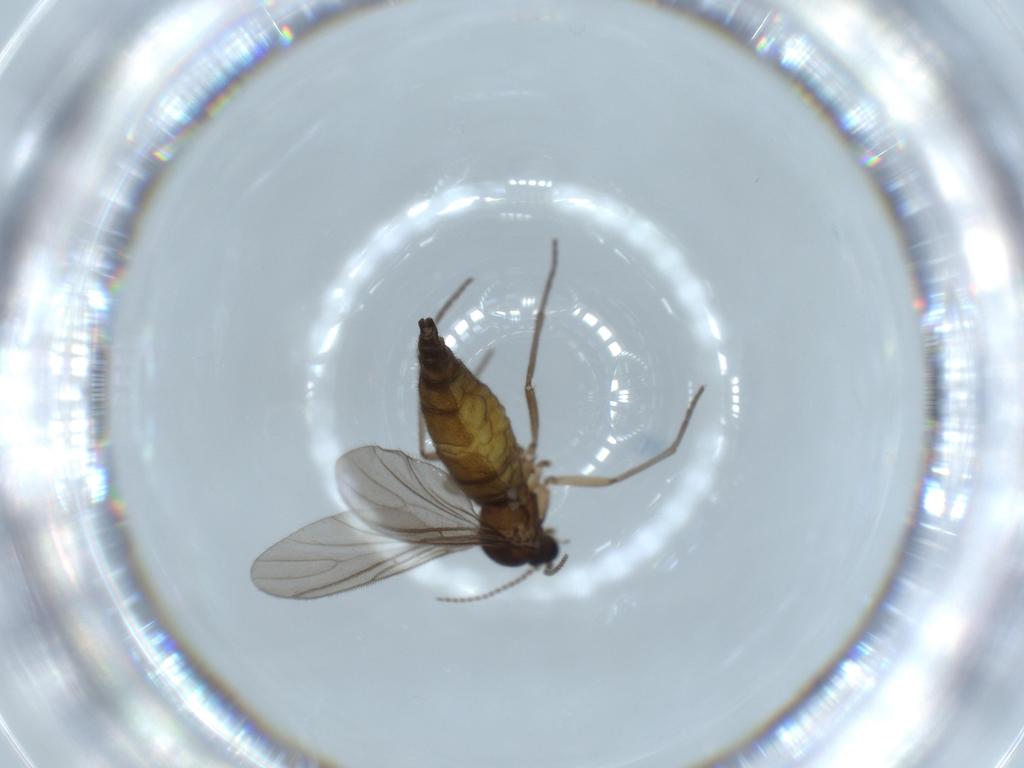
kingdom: Animalia
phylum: Arthropoda
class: Insecta
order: Diptera
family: Sciaridae
